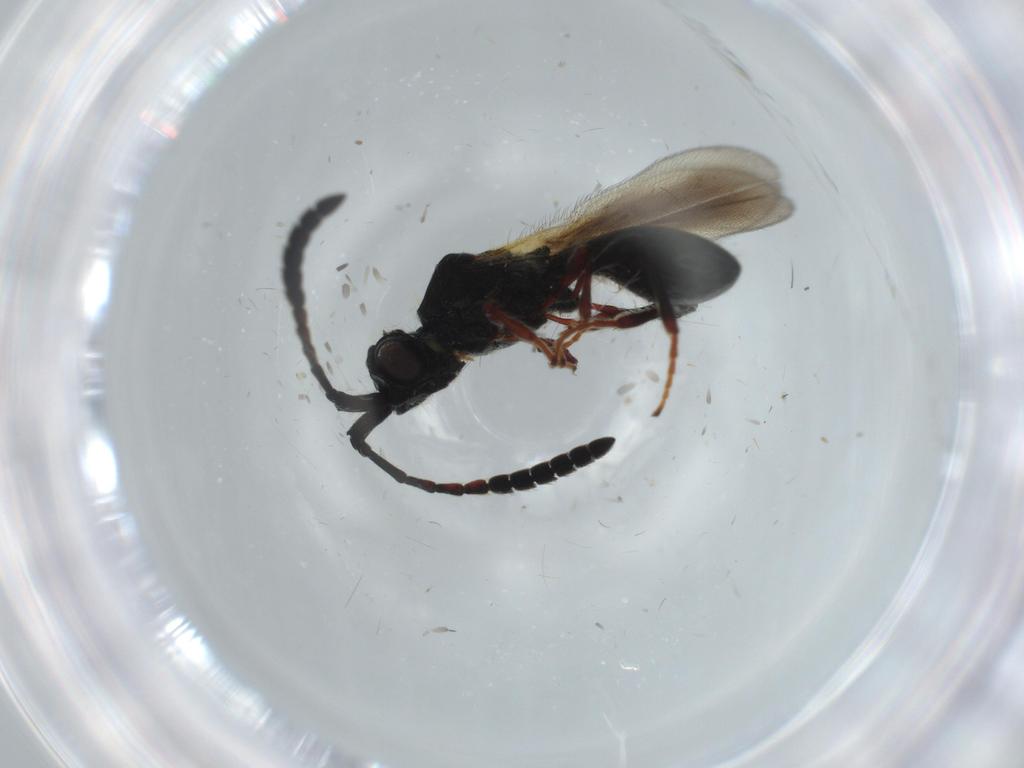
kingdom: Animalia
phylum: Arthropoda
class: Insecta
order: Hymenoptera
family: Diapriidae
